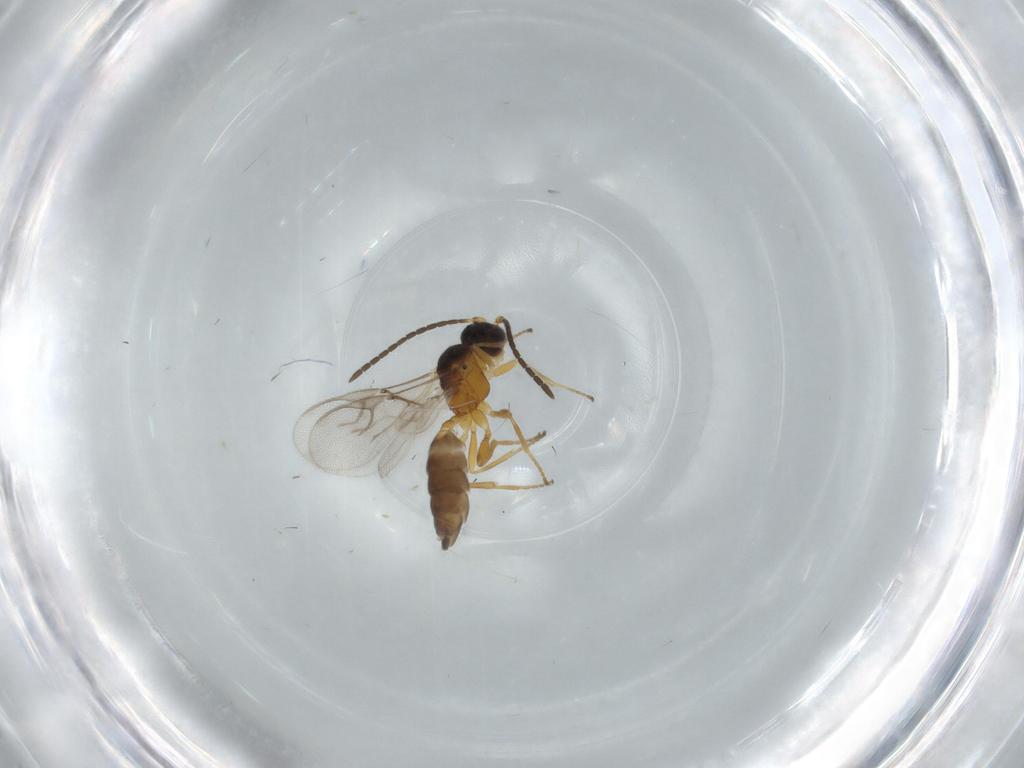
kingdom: Animalia
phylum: Arthropoda
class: Insecta
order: Hymenoptera
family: Braconidae
